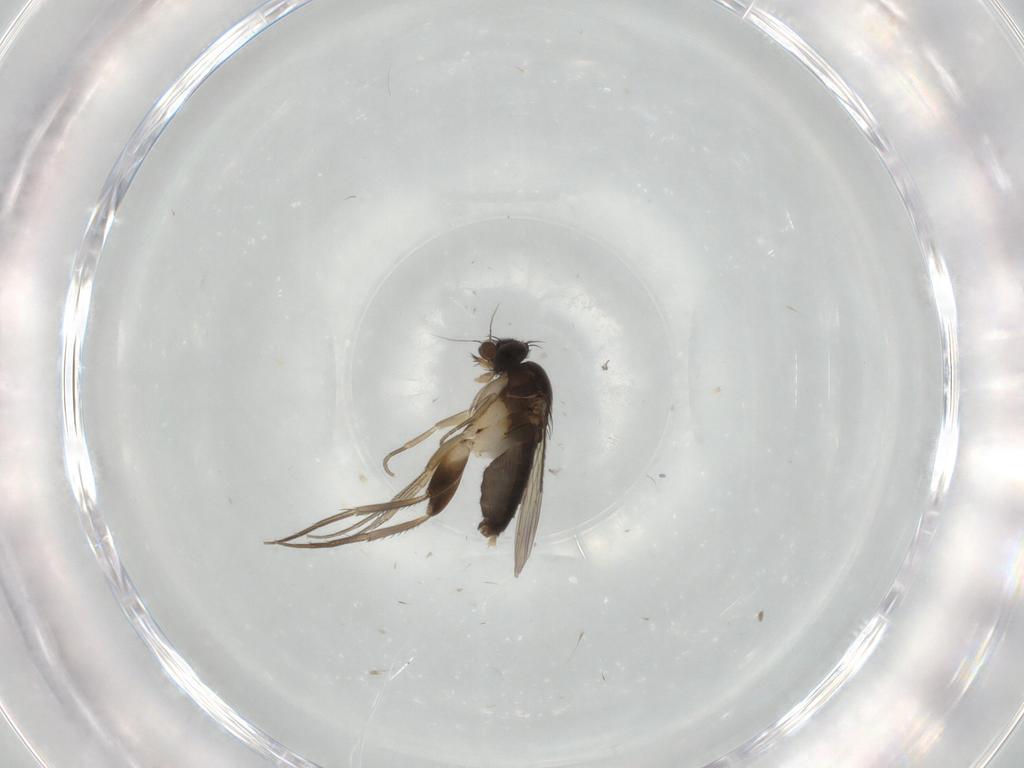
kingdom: Animalia
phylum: Arthropoda
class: Insecta
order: Diptera
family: Phoridae
